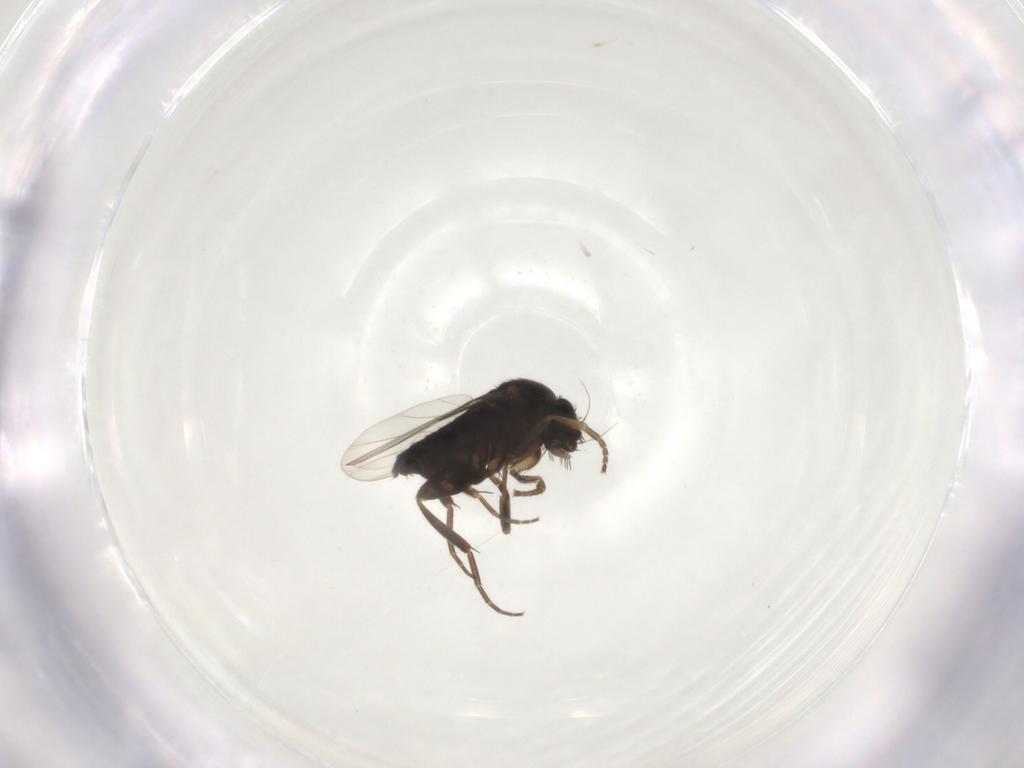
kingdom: Animalia
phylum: Arthropoda
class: Insecta
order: Diptera
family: Phoridae
